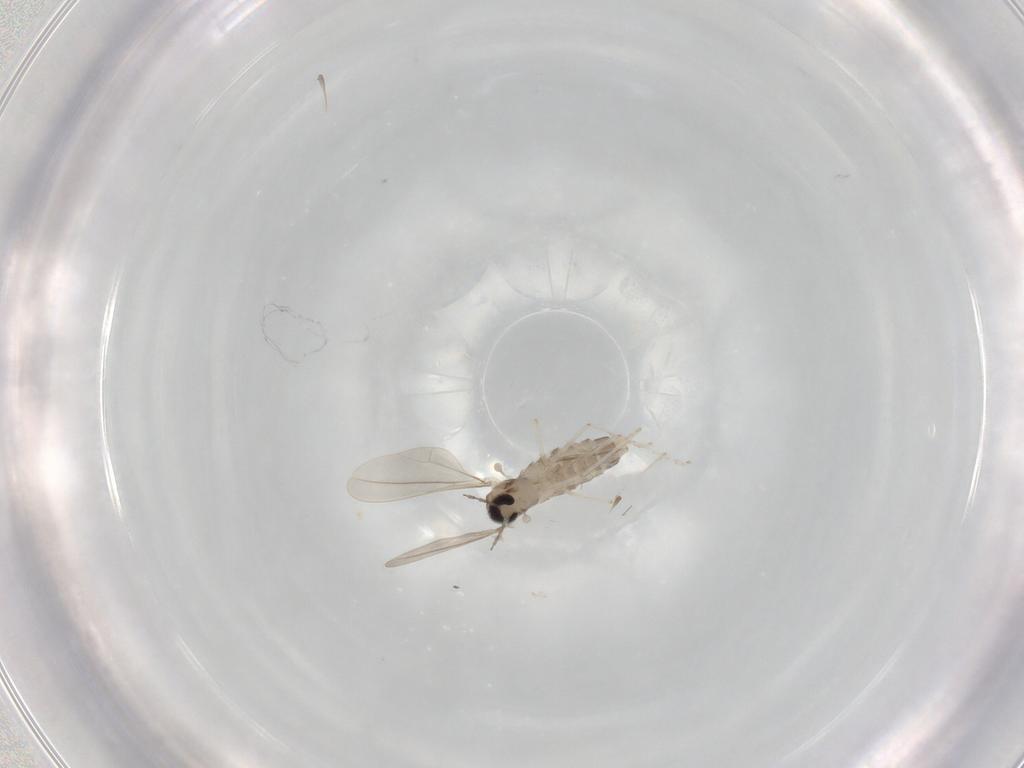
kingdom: Animalia
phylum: Arthropoda
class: Insecta
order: Diptera
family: Cecidomyiidae
